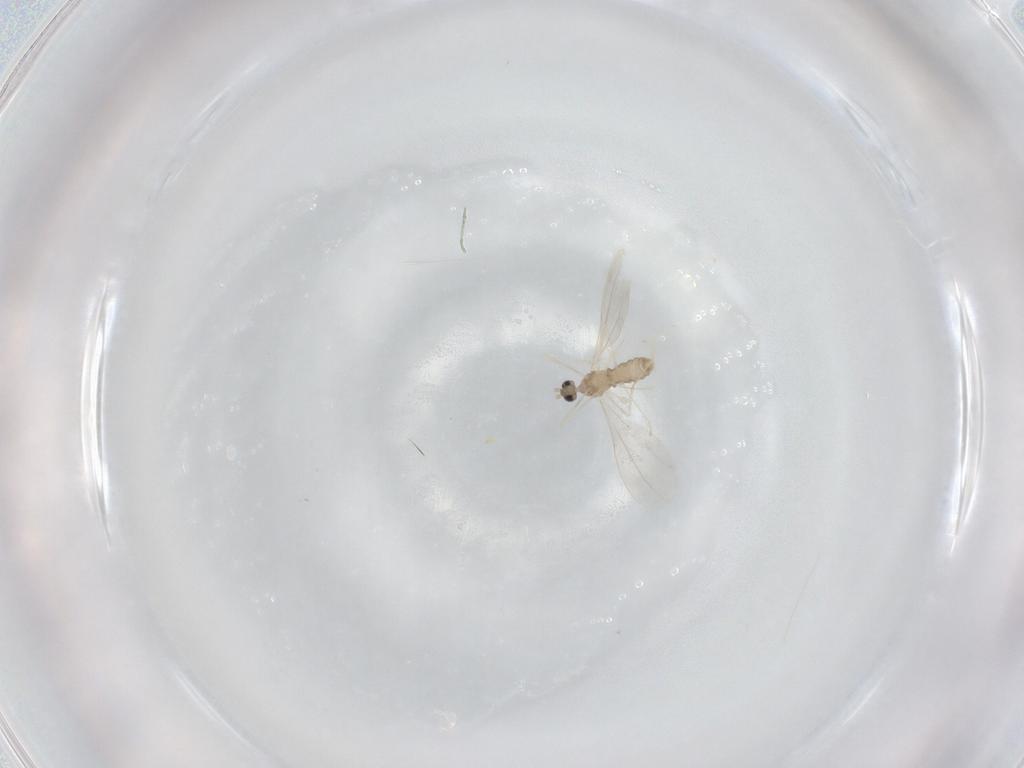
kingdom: Animalia
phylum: Arthropoda
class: Insecta
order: Diptera
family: Cecidomyiidae
